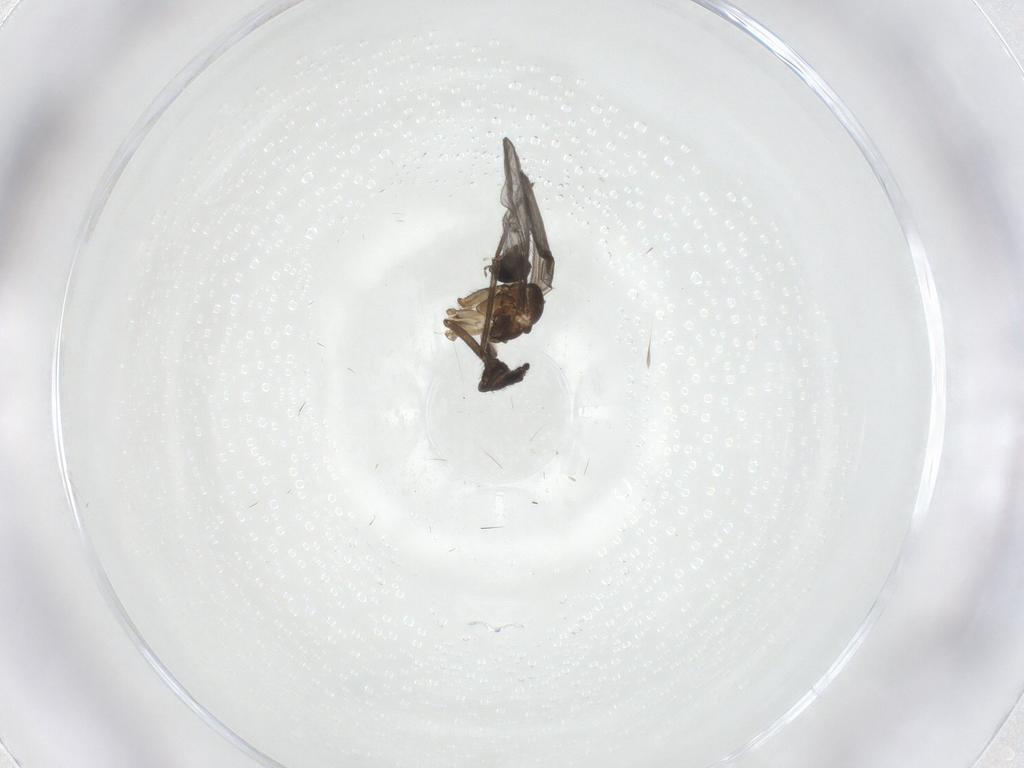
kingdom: Animalia
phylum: Arthropoda
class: Insecta
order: Diptera
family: Sciaridae
